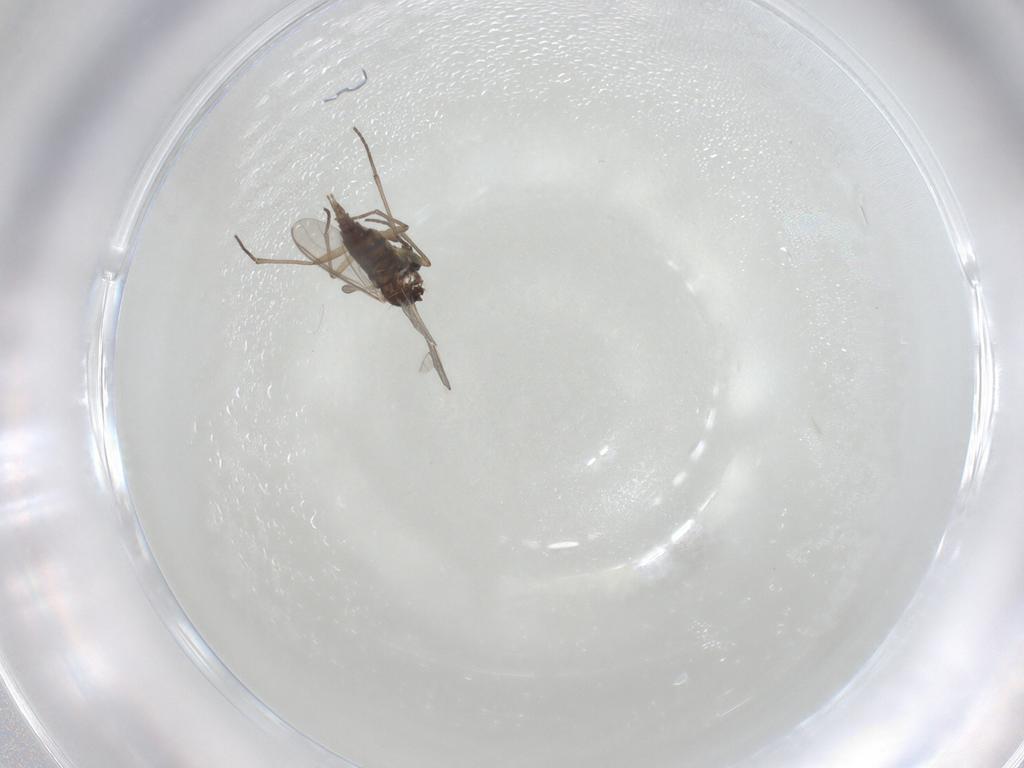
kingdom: Animalia
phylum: Arthropoda
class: Insecta
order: Diptera
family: Sciaridae
